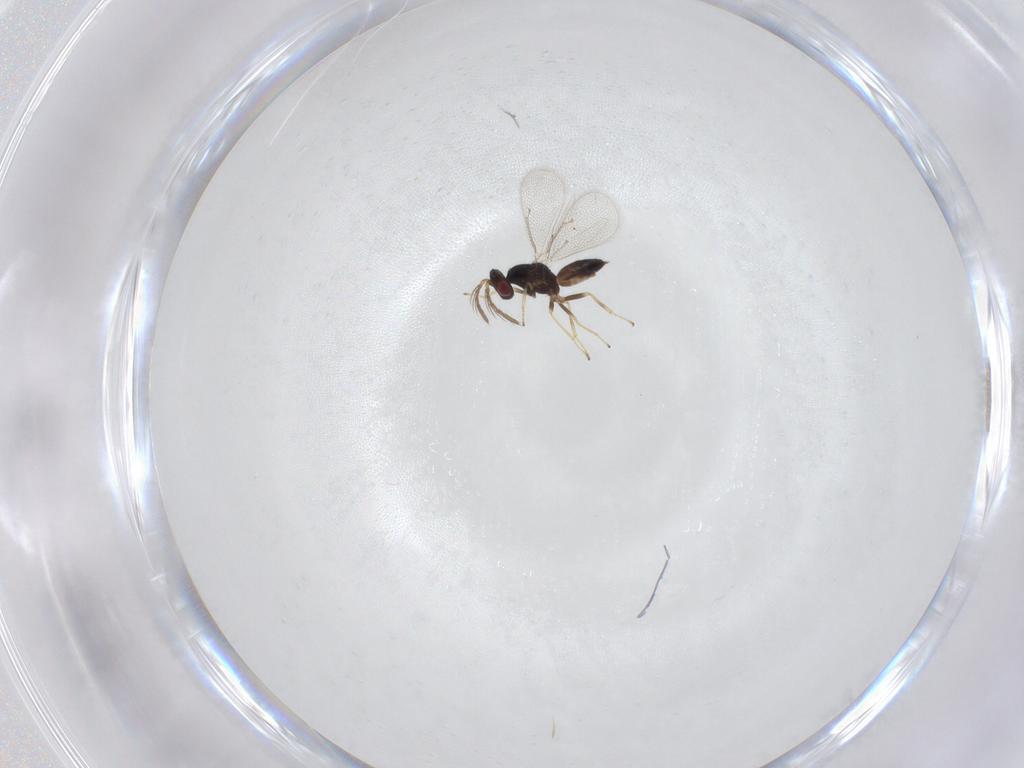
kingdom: Animalia
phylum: Arthropoda
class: Insecta
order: Hymenoptera
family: Eulophidae
